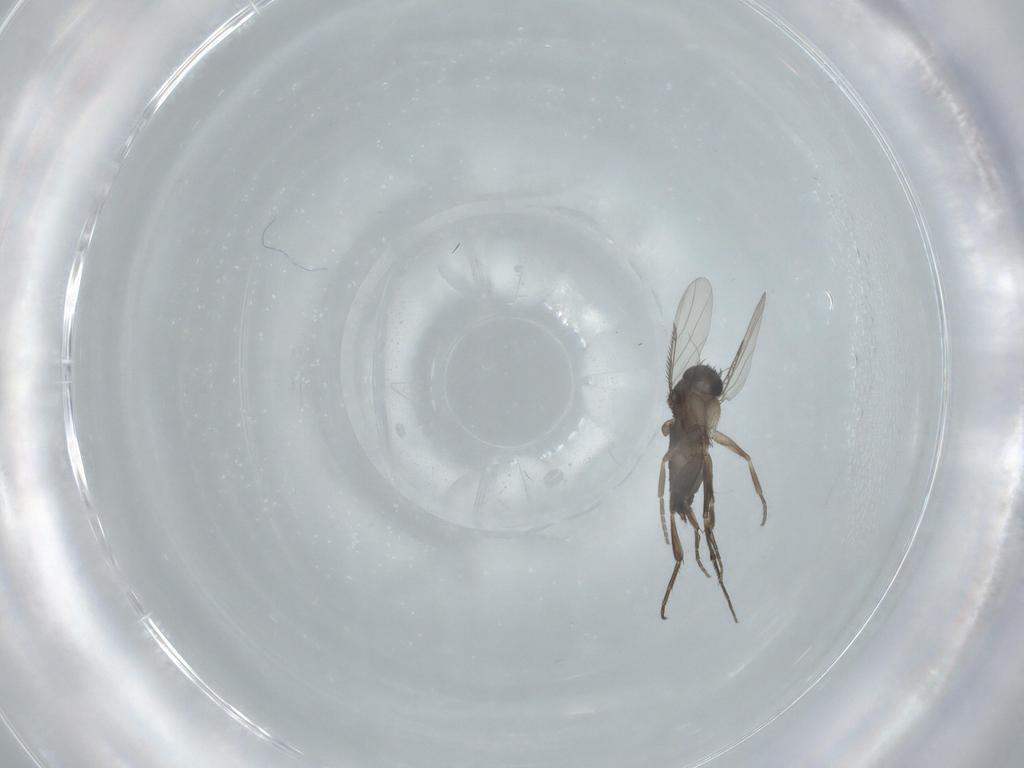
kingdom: Animalia
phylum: Arthropoda
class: Insecta
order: Diptera
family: Phoridae
